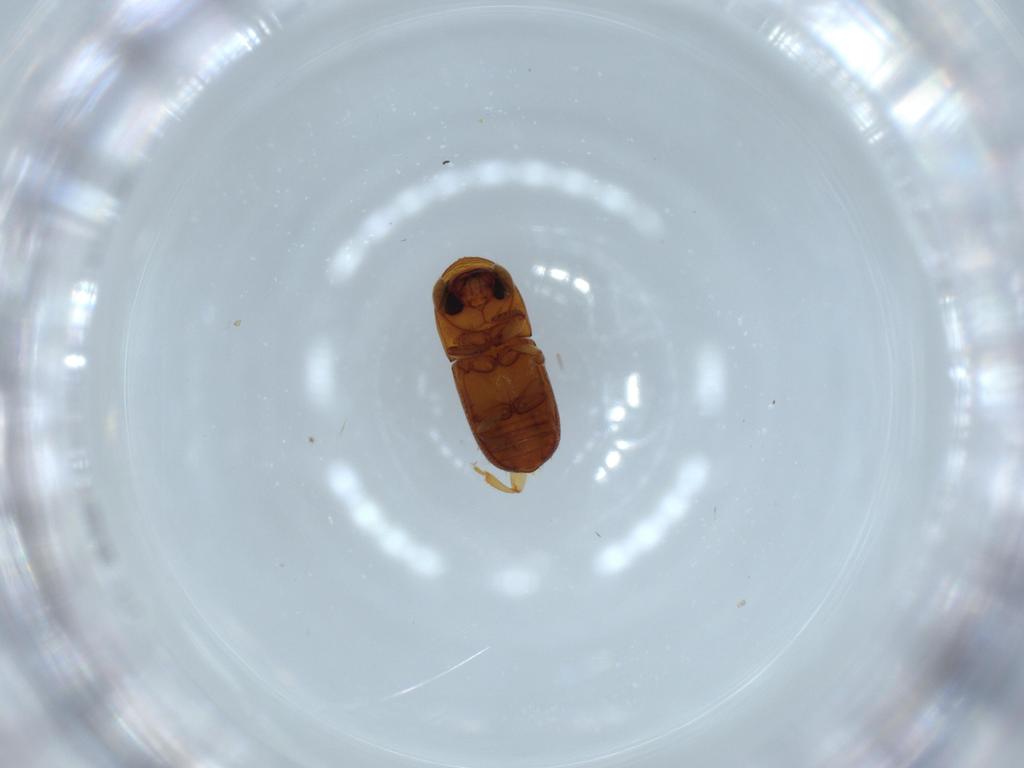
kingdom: Animalia
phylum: Arthropoda
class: Insecta
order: Coleoptera
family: Curculionidae
